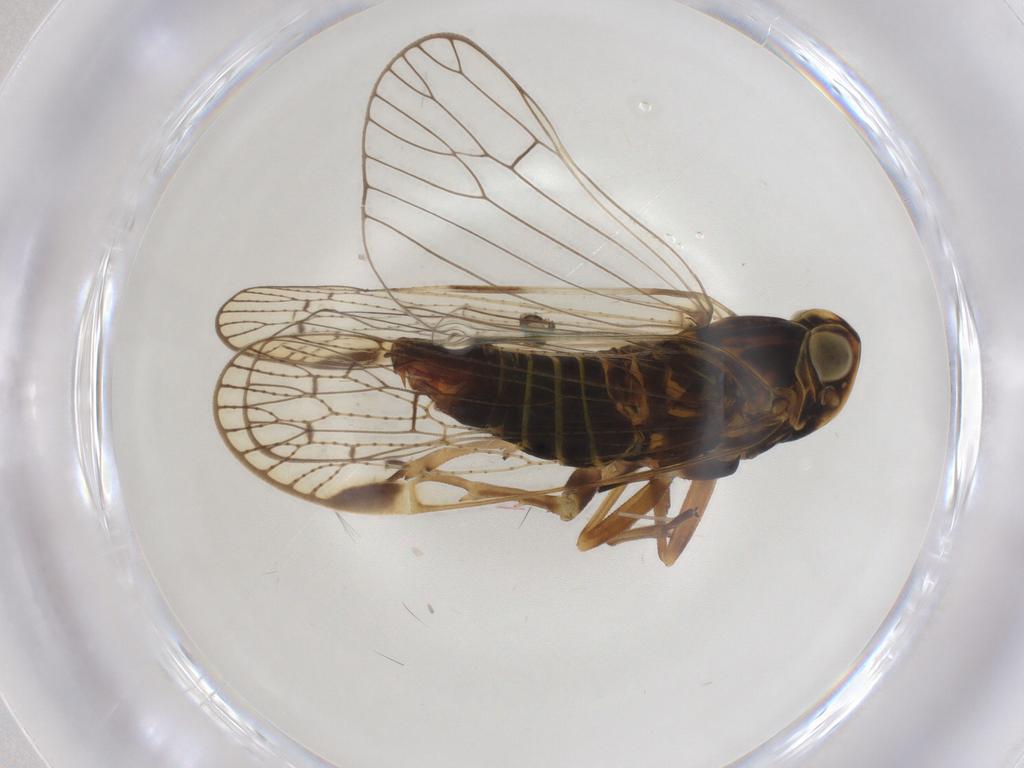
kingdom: Animalia
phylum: Arthropoda
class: Insecta
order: Hemiptera
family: Cixiidae
